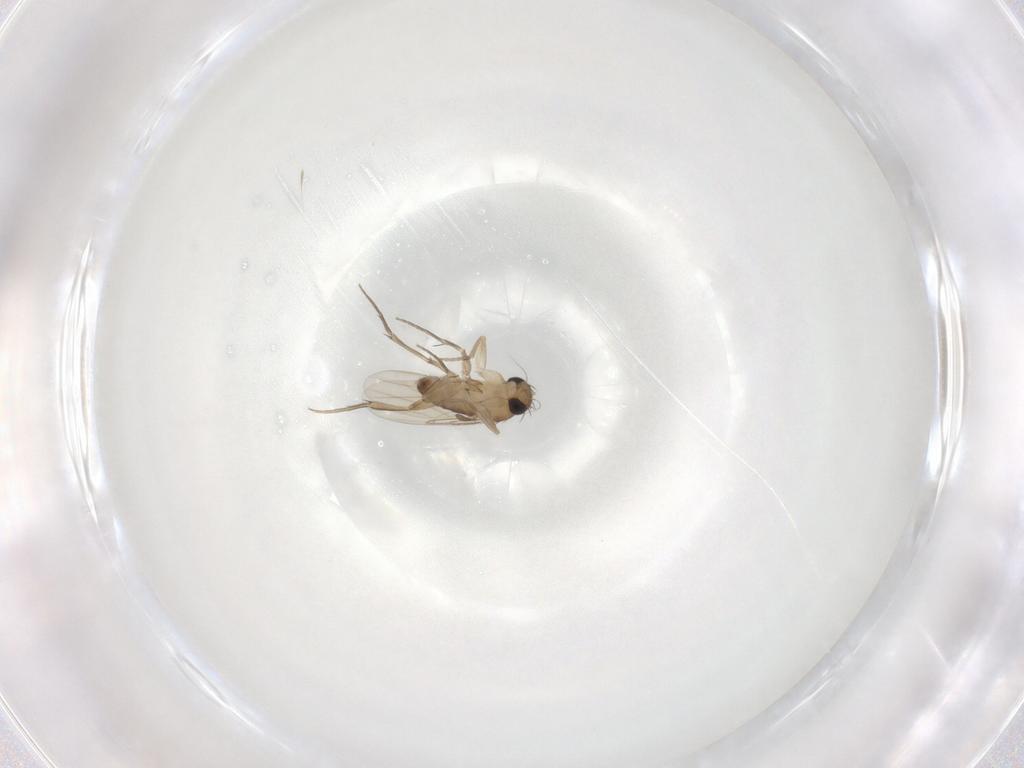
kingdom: Animalia
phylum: Arthropoda
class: Insecta
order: Diptera
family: Phoridae
